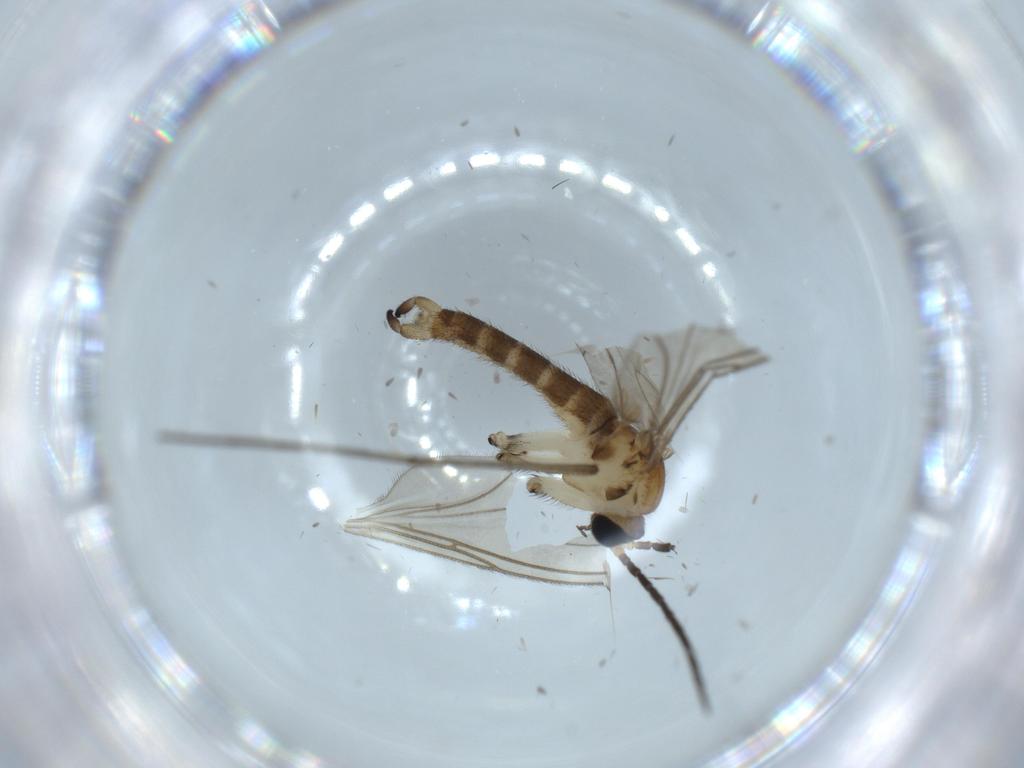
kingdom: Animalia
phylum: Arthropoda
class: Insecta
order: Diptera
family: Sciaridae
